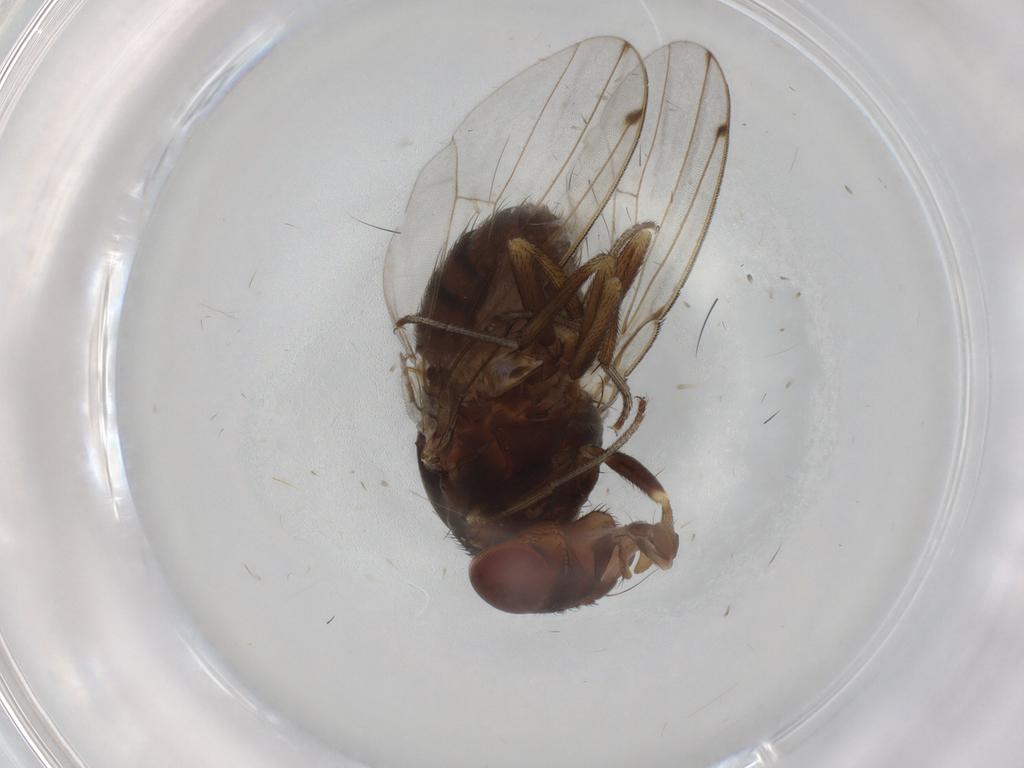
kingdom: Animalia
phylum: Arthropoda
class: Insecta
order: Diptera
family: Drosophilidae
